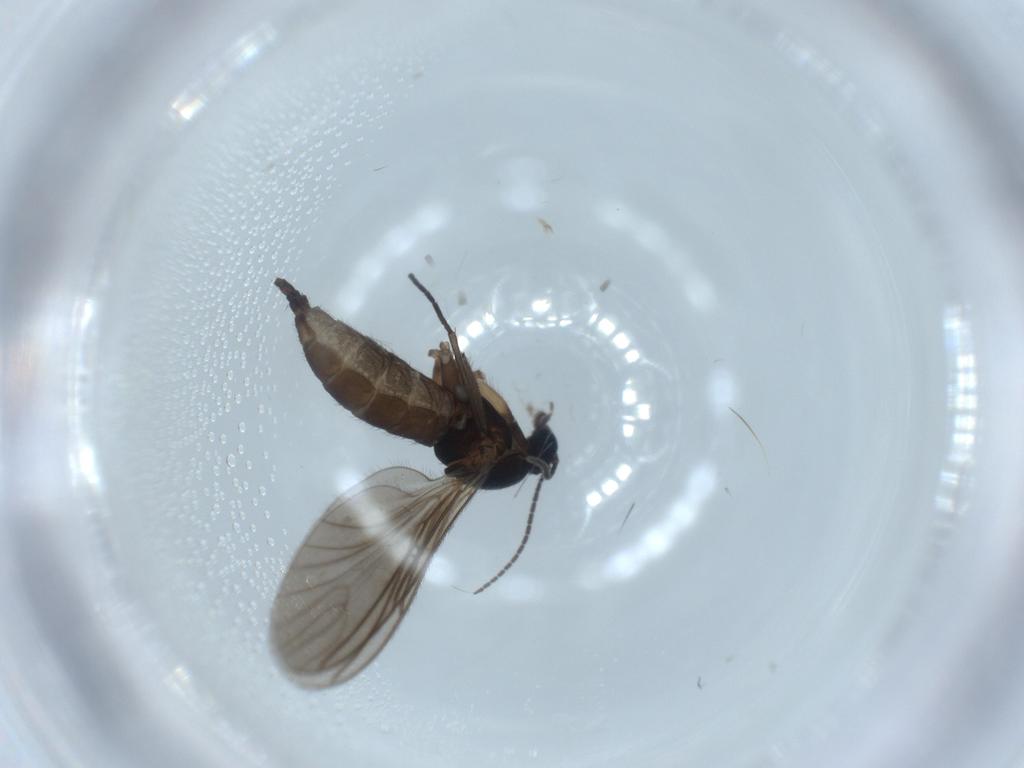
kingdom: Animalia
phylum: Arthropoda
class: Insecta
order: Diptera
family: Sciaridae
